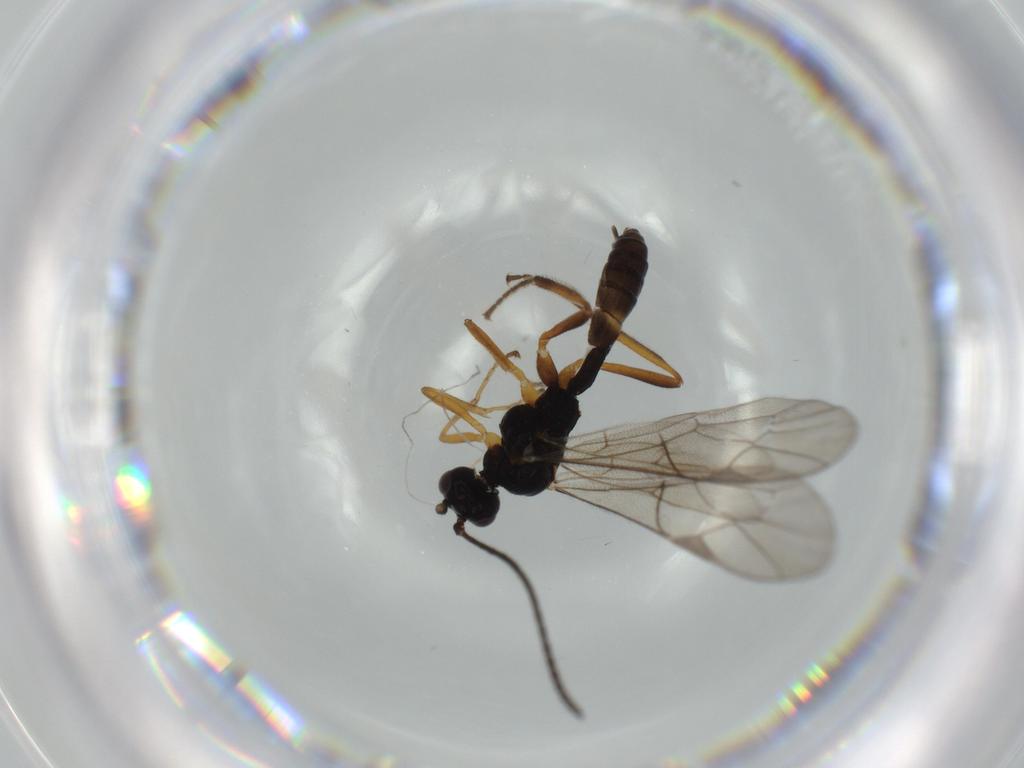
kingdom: Animalia
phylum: Arthropoda
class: Insecta
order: Hymenoptera
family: Ichneumonidae
